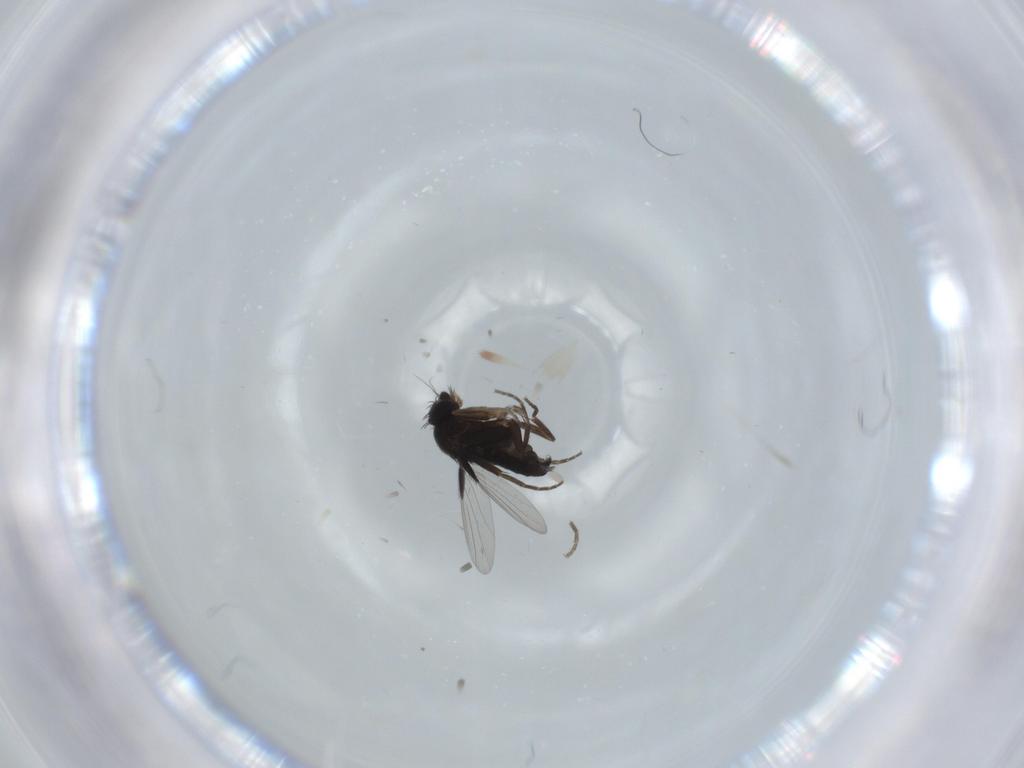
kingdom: Animalia
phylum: Arthropoda
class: Insecta
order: Diptera
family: Phoridae
